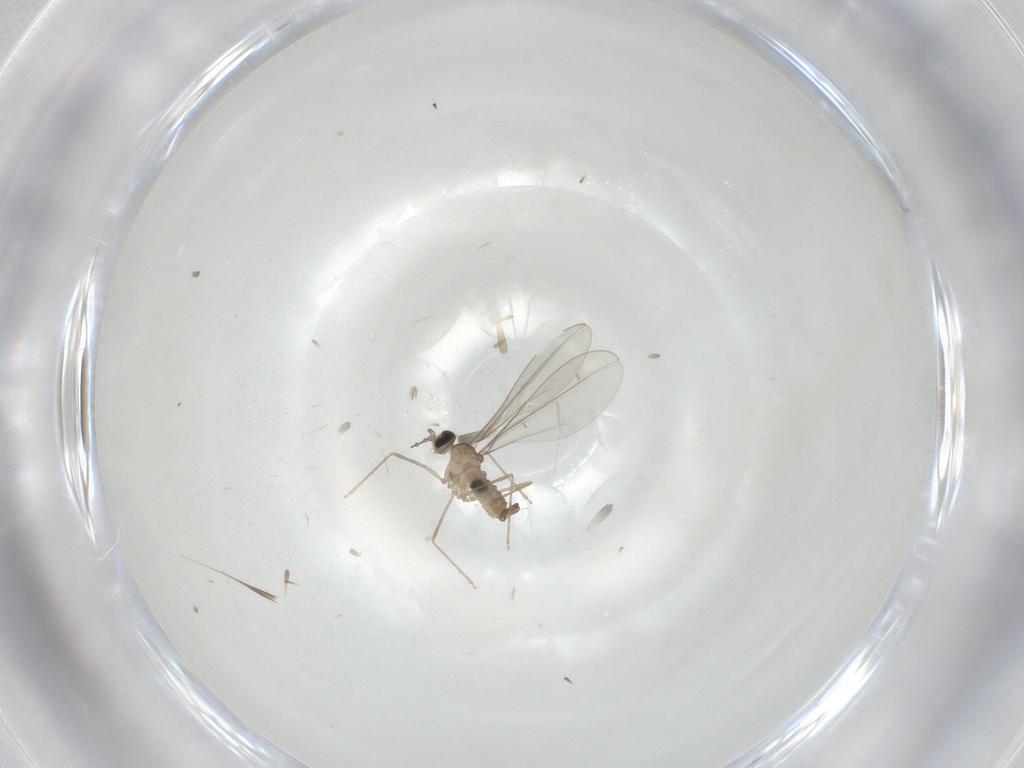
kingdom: Animalia
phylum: Arthropoda
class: Insecta
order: Diptera
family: Cecidomyiidae
